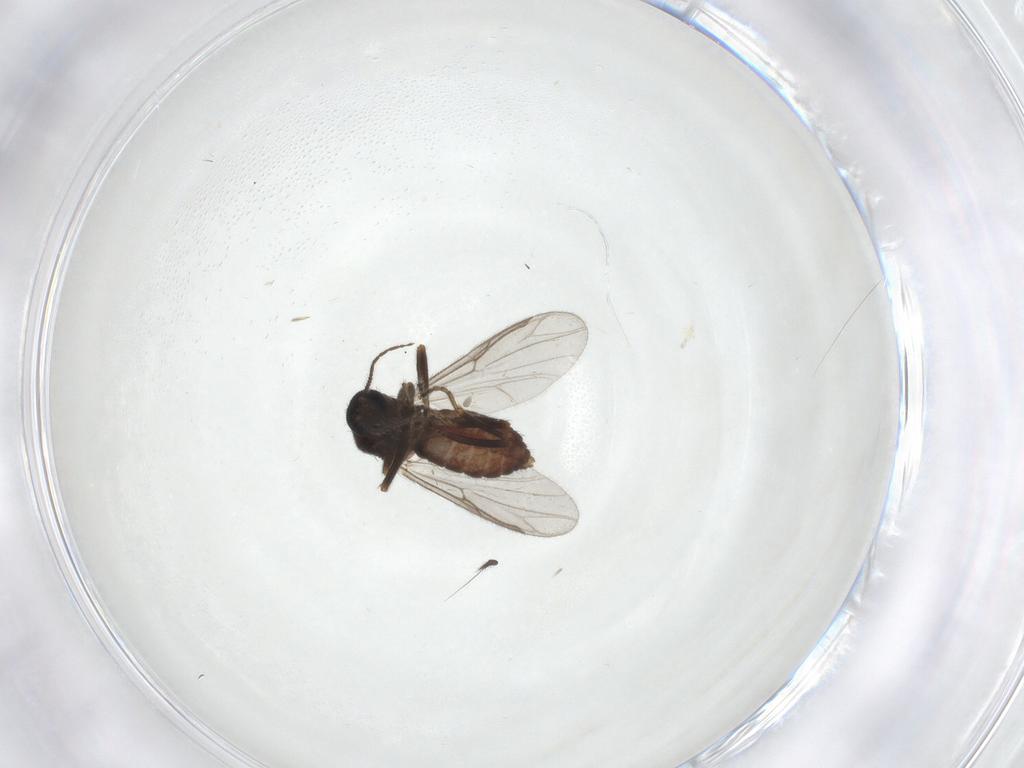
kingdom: Animalia
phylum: Arthropoda
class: Insecta
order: Diptera
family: Ceratopogonidae
